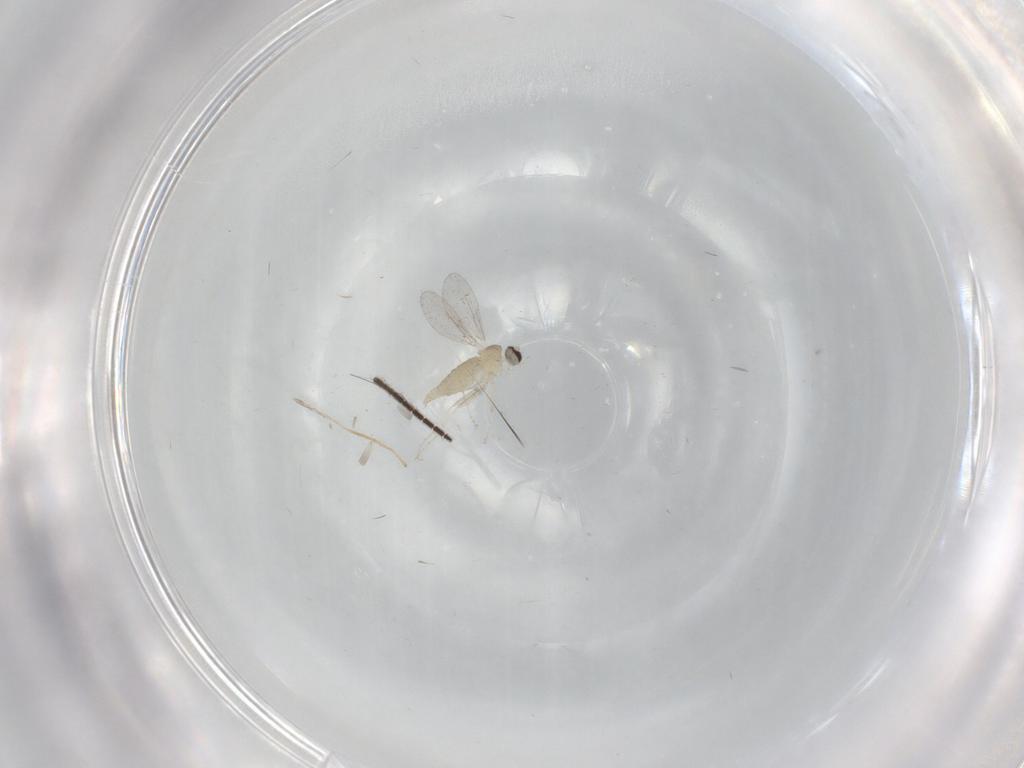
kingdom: Animalia
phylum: Arthropoda
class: Insecta
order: Diptera
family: Cecidomyiidae
